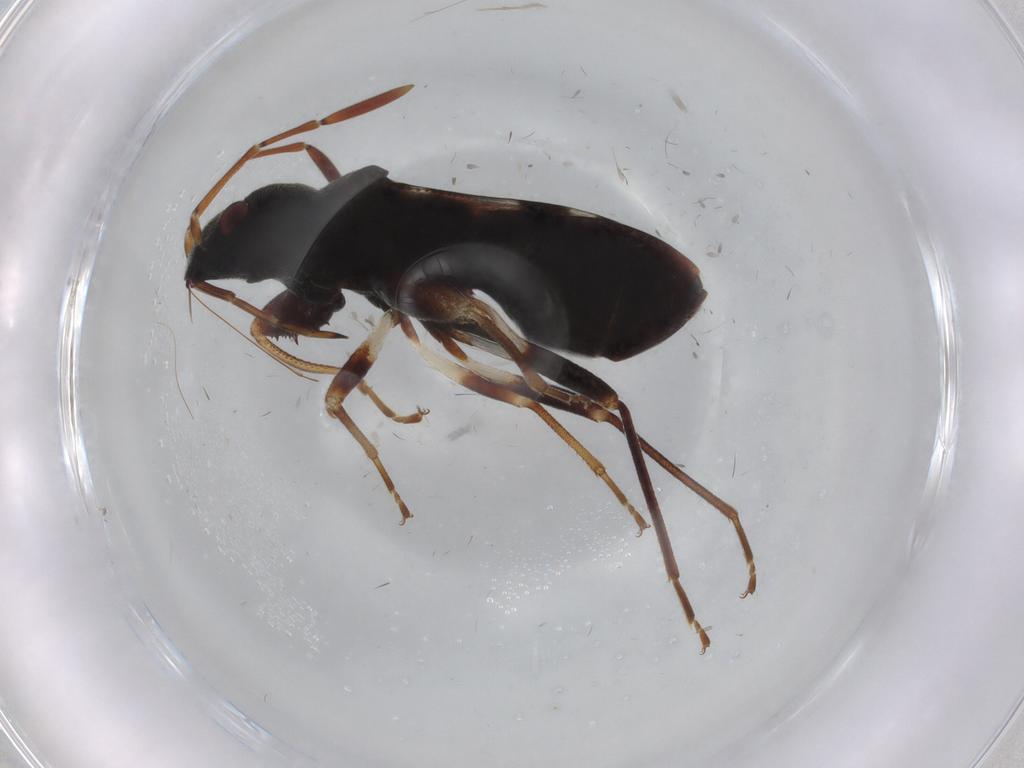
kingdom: Animalia
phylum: Arthropoda
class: Insecta
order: Hemiptera
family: Rhyparochromidae
